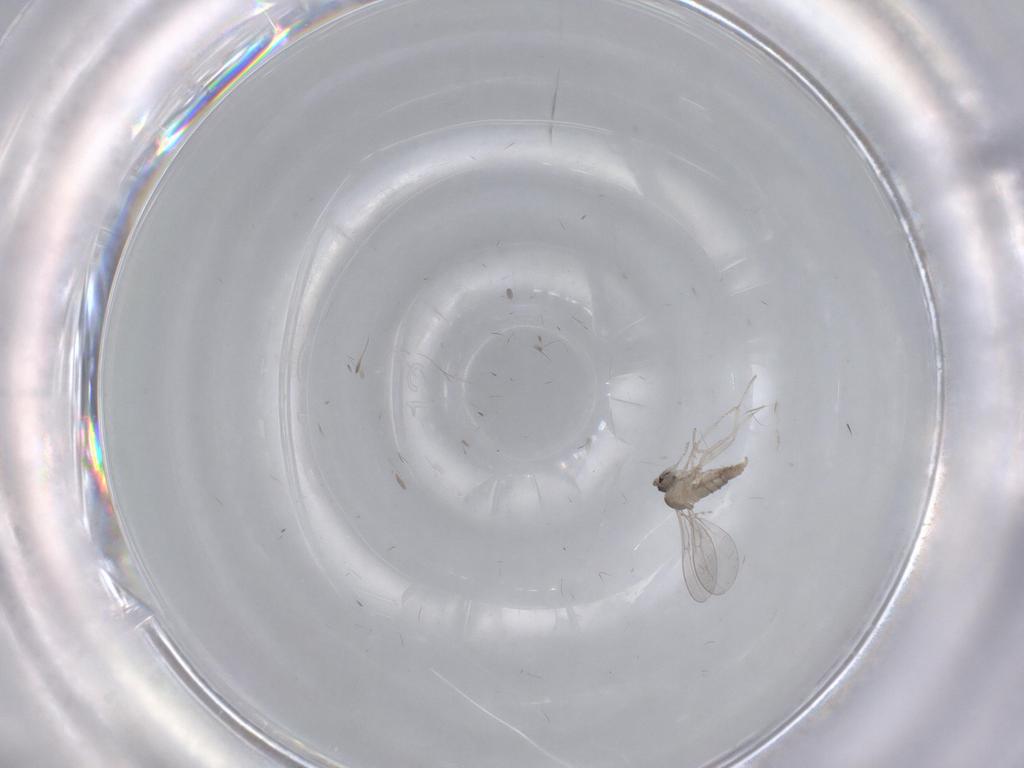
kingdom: Animalia
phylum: Arthropoda
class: Insecta
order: Diptera
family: Cecidomyiidae
